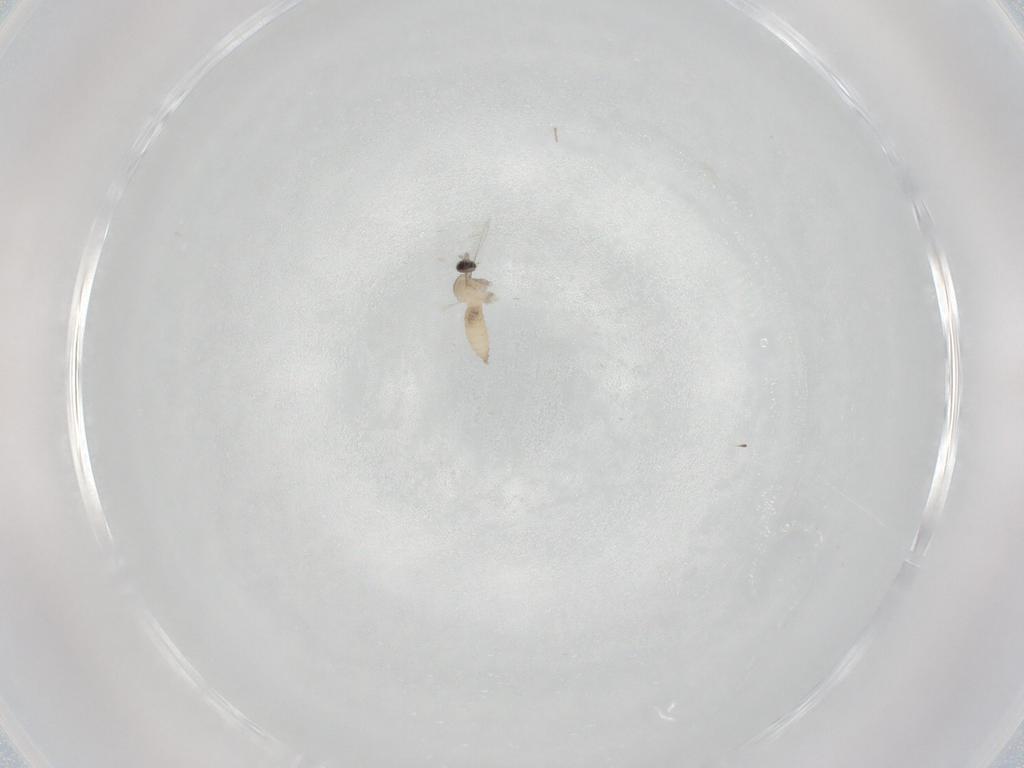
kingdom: Animalia
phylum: Arthropoda
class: Insecta
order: Diptera
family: Cecidomyiidae
